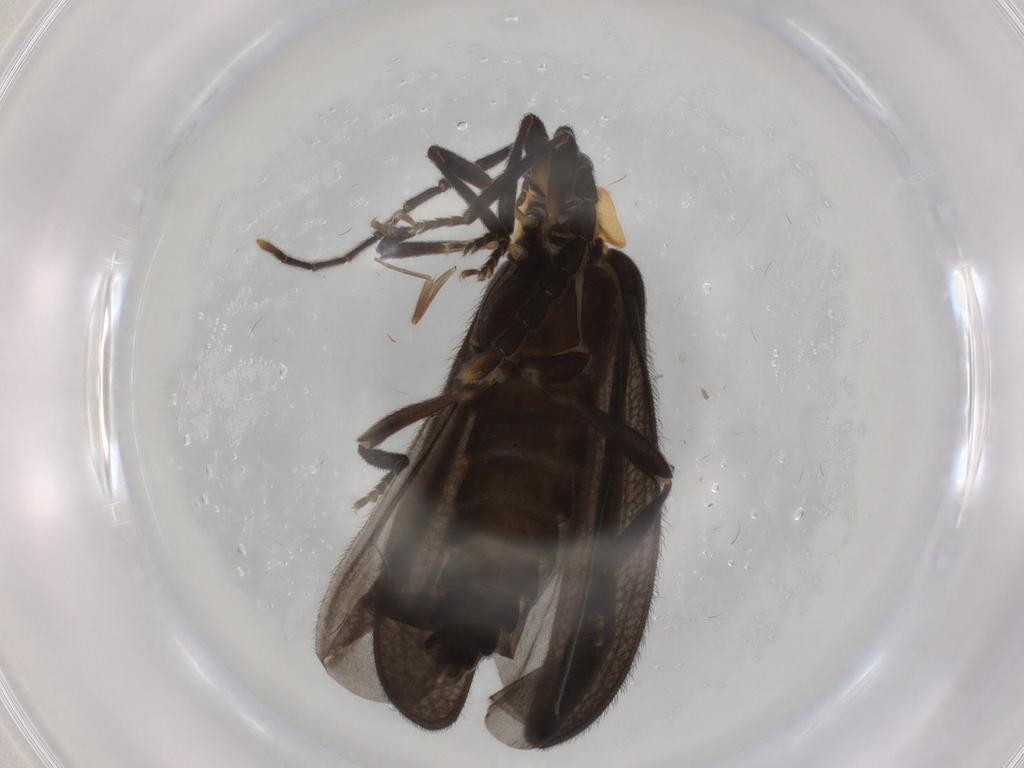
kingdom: Animalia
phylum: Arthropoda
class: Insecta
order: Coleoptera
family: Lycidae
